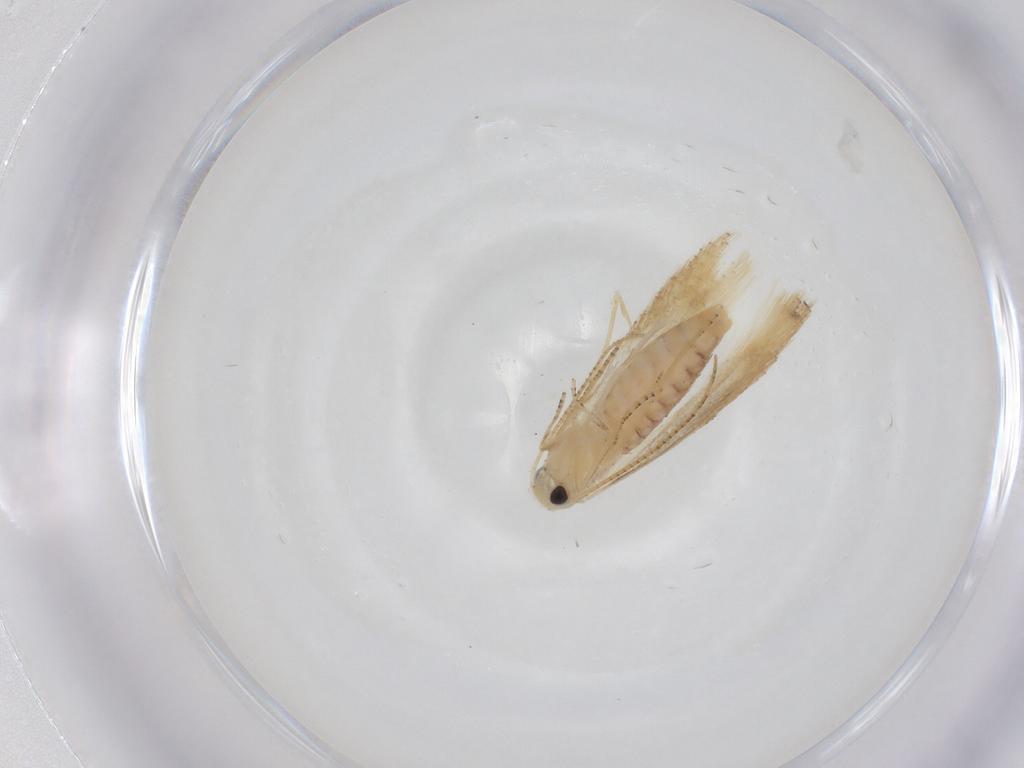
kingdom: Animalia
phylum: Arthropoda
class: Insecta
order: Lepidoptera
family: Bucculatricidae
